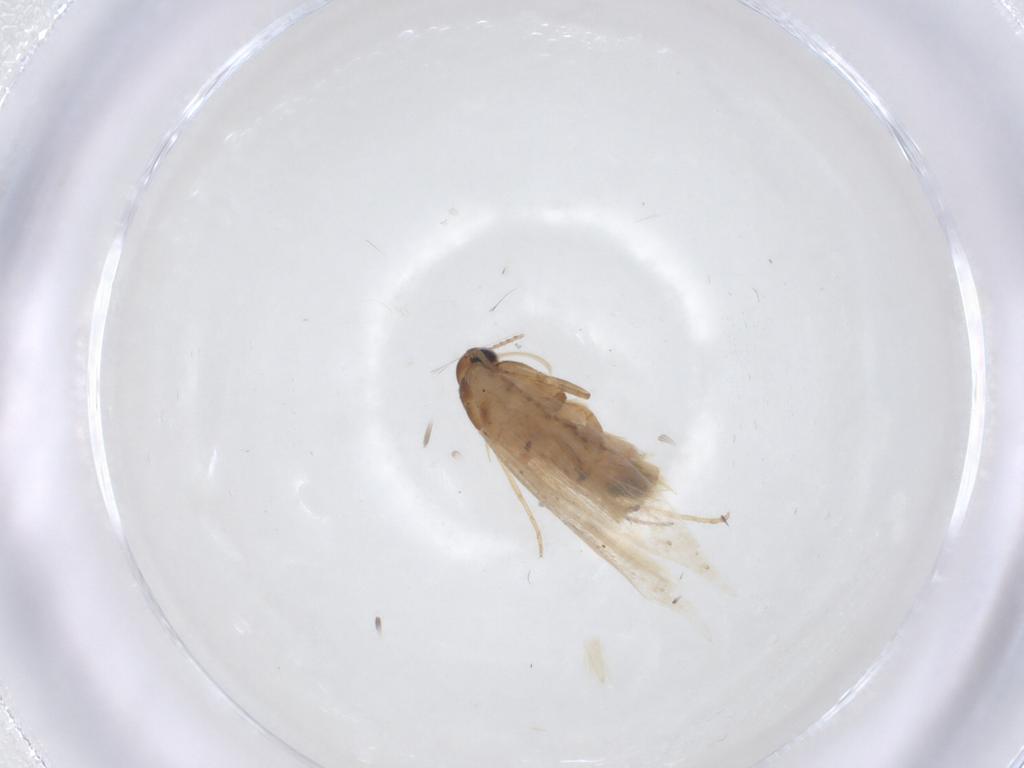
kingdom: Animalia
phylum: Arthropoda
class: Insecta
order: Lepidoptera
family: Gelechiidae
